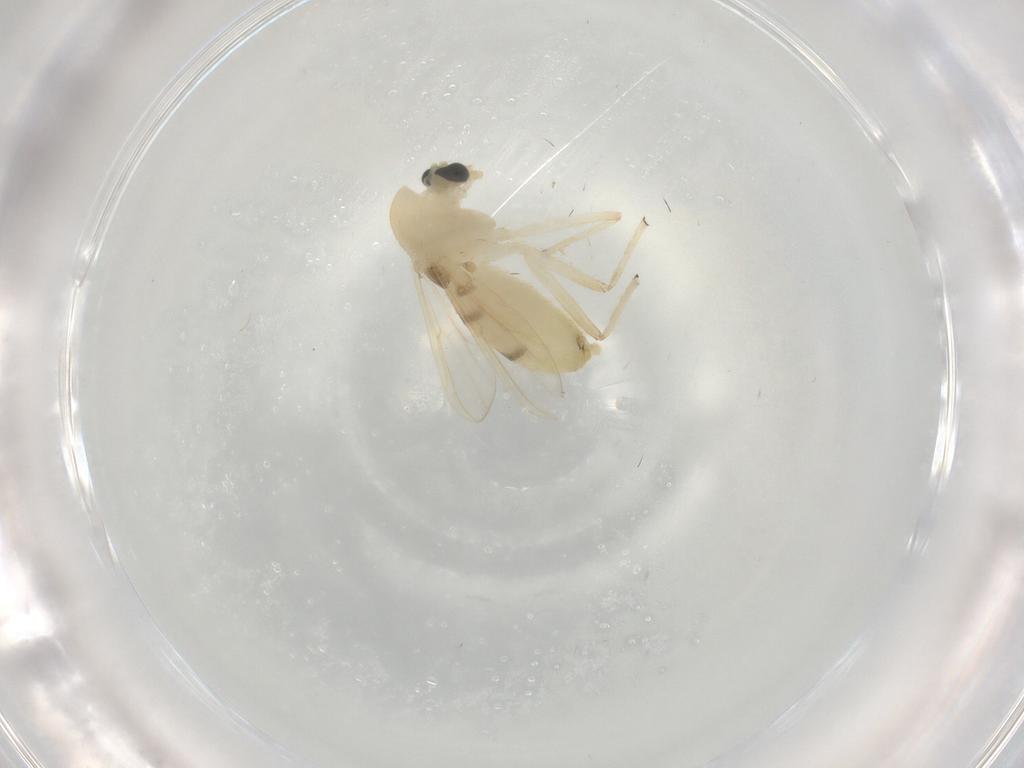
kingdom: Animalia
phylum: Arthropoda
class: Insecta
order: Diptera
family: Chironomidae
